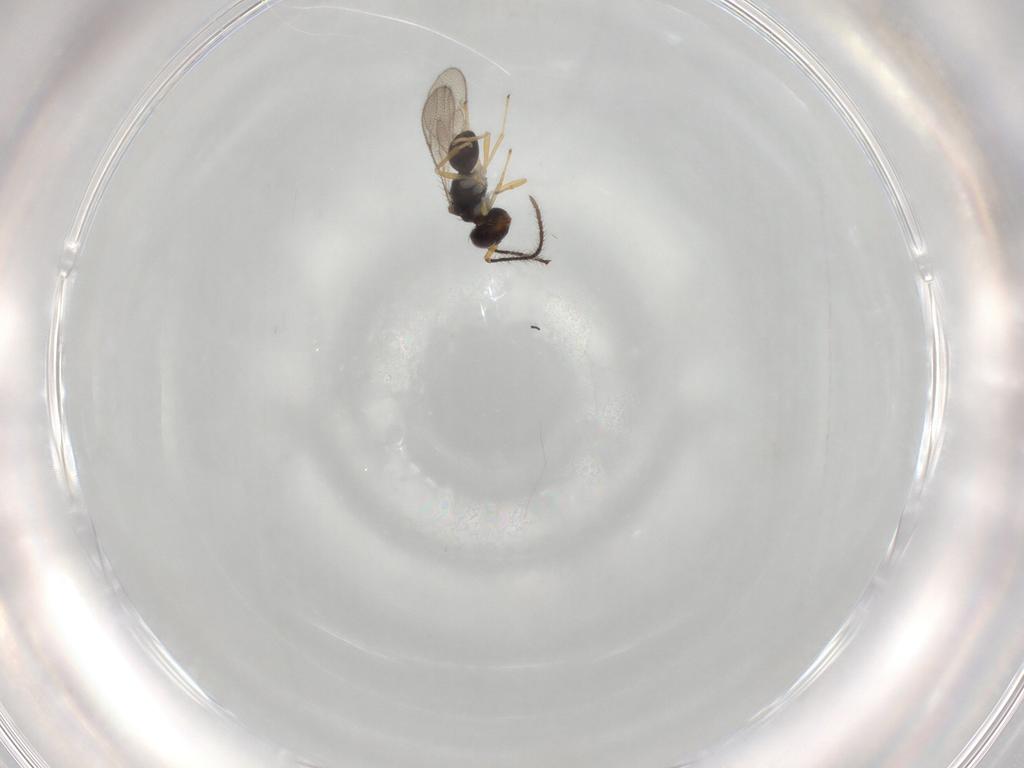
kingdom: Animalia
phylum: Arthropoda
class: Insecta
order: Hymenoptera
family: Diparidae
